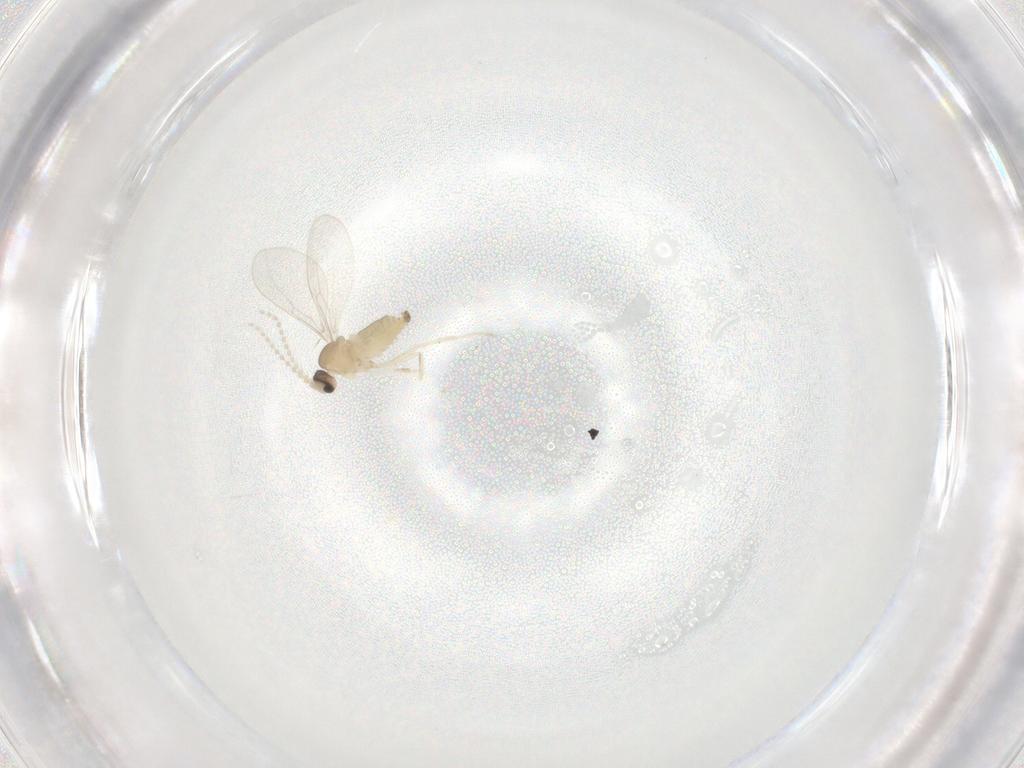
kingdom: Animalia
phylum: Arthropoda
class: Insecta
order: Diptera
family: Cecidomyiidae
